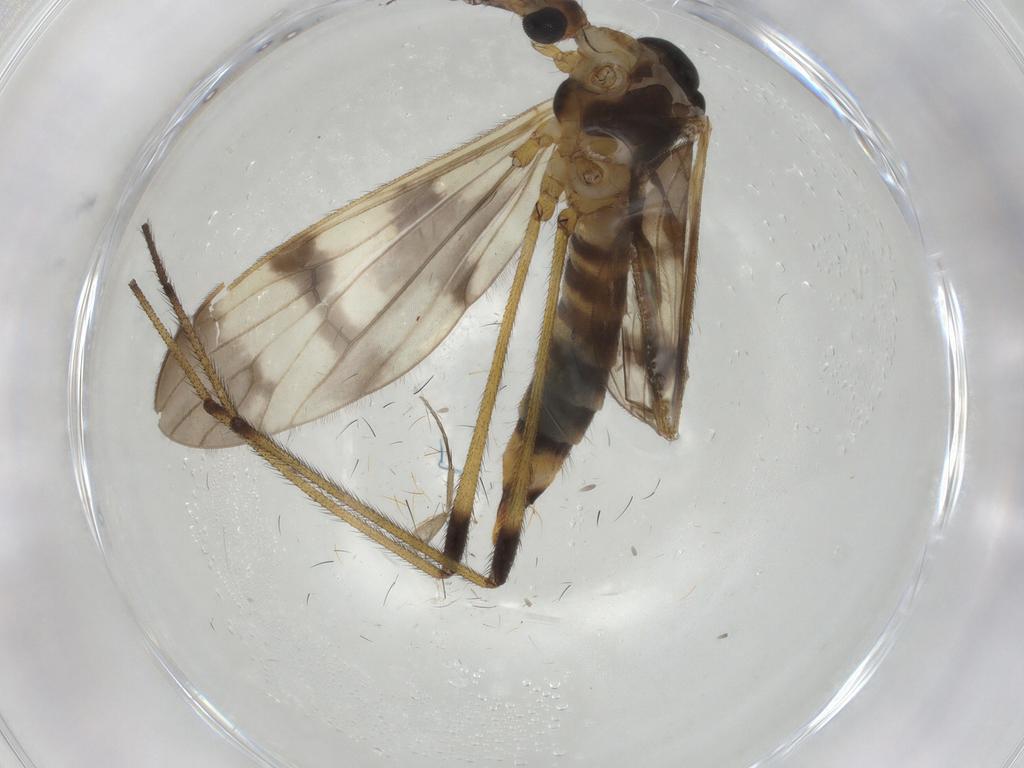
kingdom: Animalia
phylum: Arthropoda
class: Insecta
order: Diptera
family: Limoniidae
